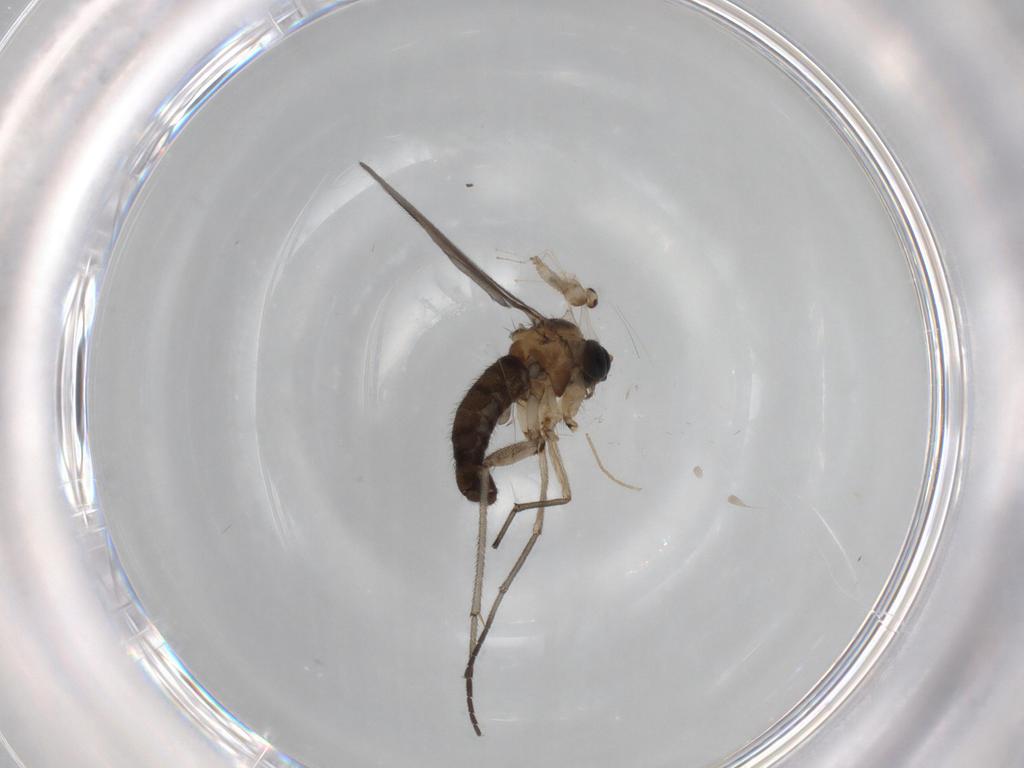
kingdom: Animalia
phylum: Arthropoda
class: Insecta
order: Diptera
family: Sciaridae
